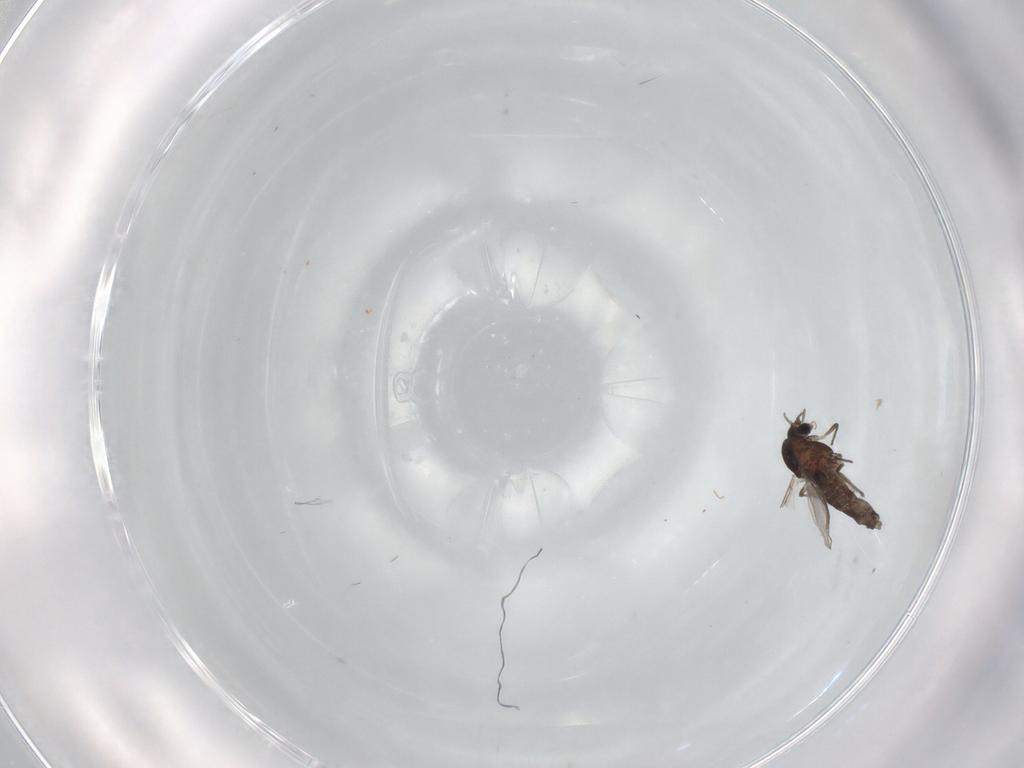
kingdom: Animalia
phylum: Arthropoda
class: Insecta
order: Diptera
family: Chironomidae
